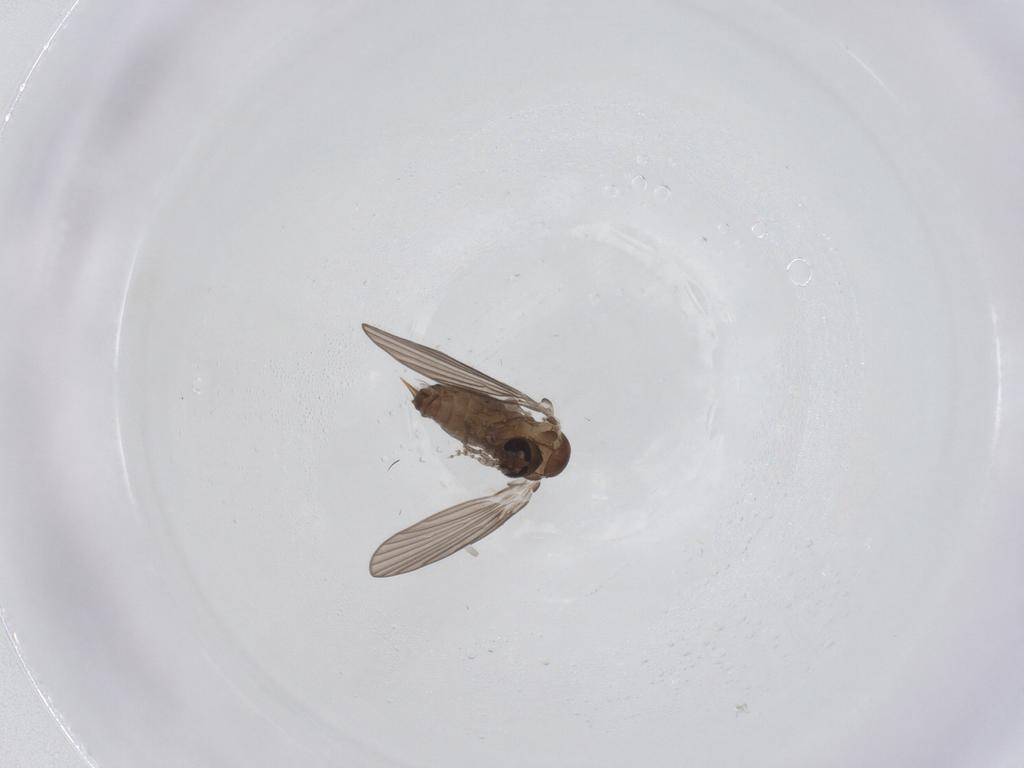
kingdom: Animalia
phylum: Arthropoda
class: Insecta
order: Diptera
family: Psychodidae
